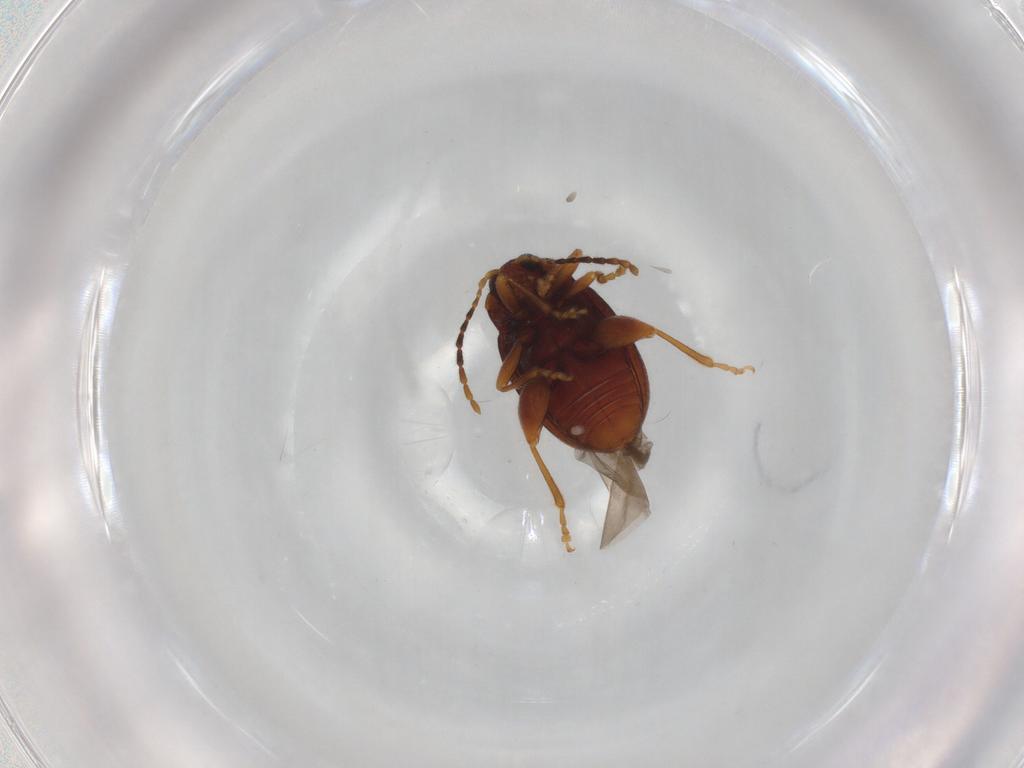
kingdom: Animalia
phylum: Arthropoda
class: Insecta
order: Coleoptera
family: Chrysomelidae
